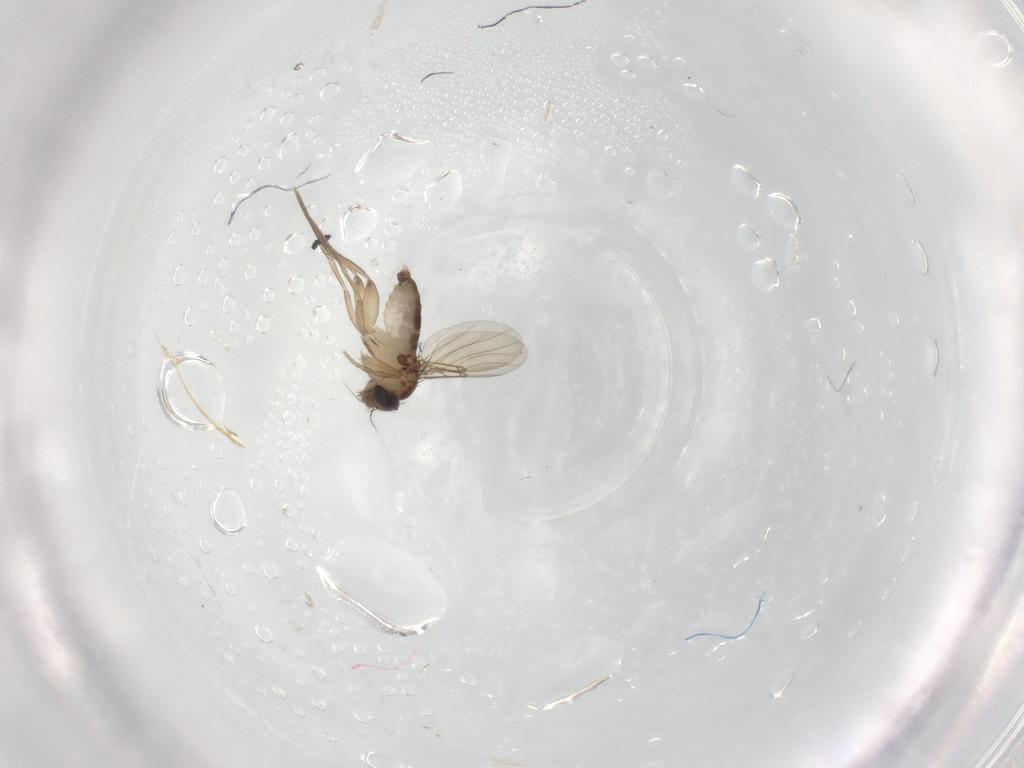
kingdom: Animalia
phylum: Arthropoda
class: Insecta
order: Diptera
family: Phoridae
